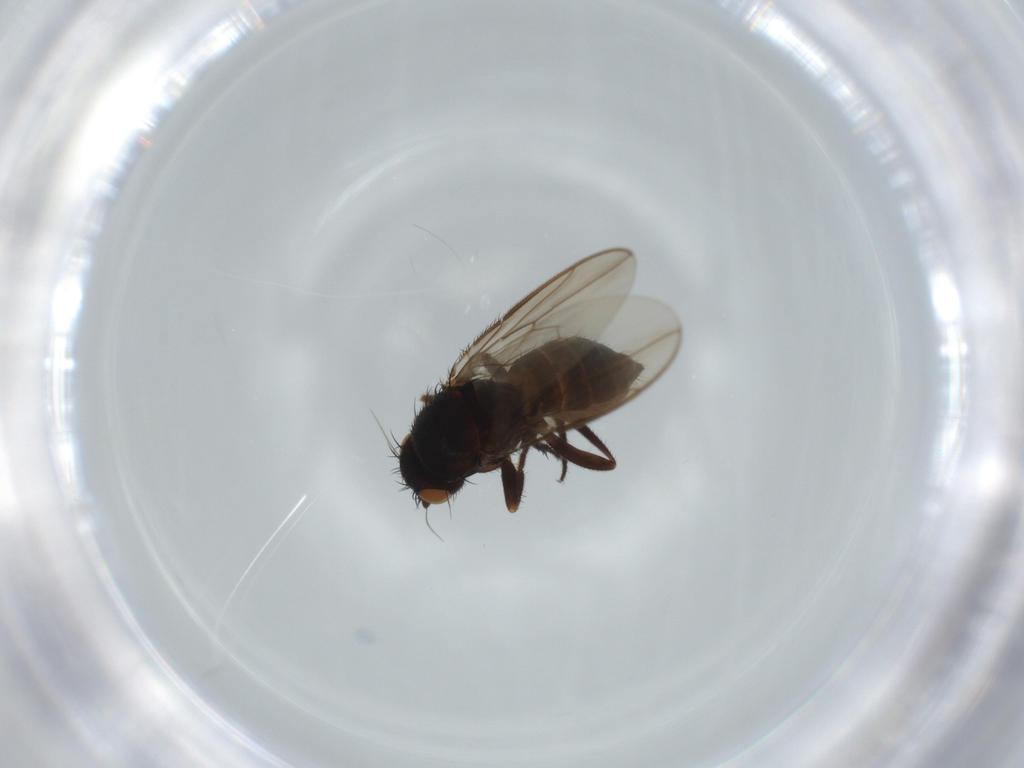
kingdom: Animalia
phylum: Arthropoda
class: Insecta
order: Diptera
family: Sphaeroceridae
